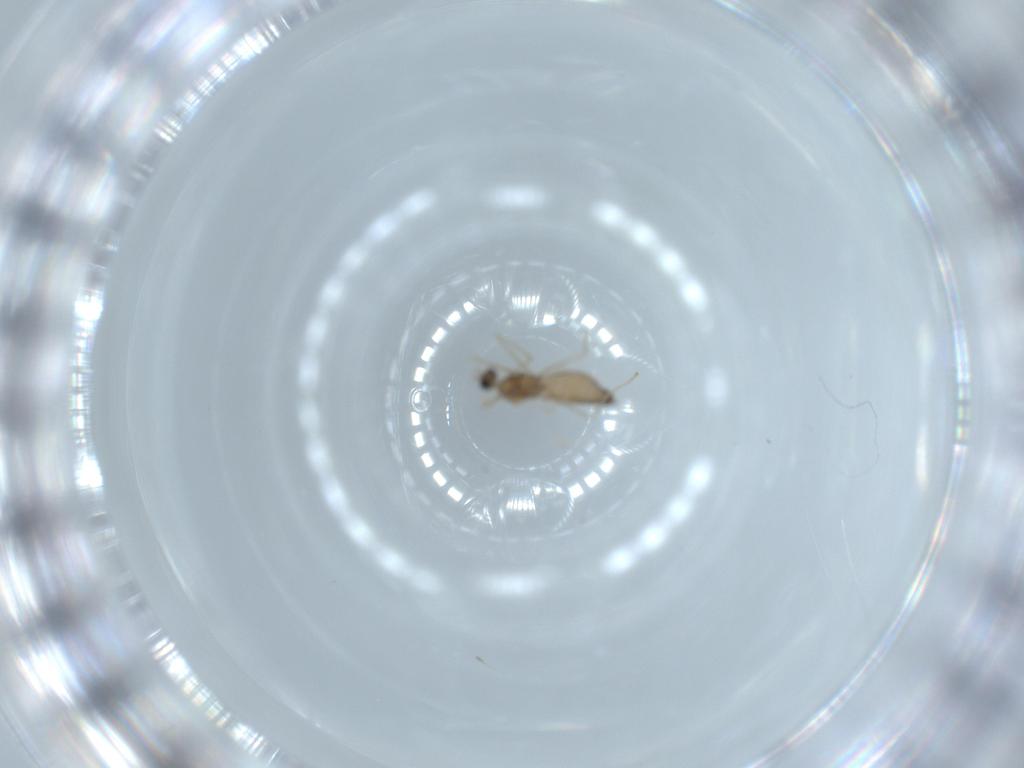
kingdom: Animalia
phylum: Arthropoda
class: Insecta
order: Diptera
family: Cecidomyiidae
